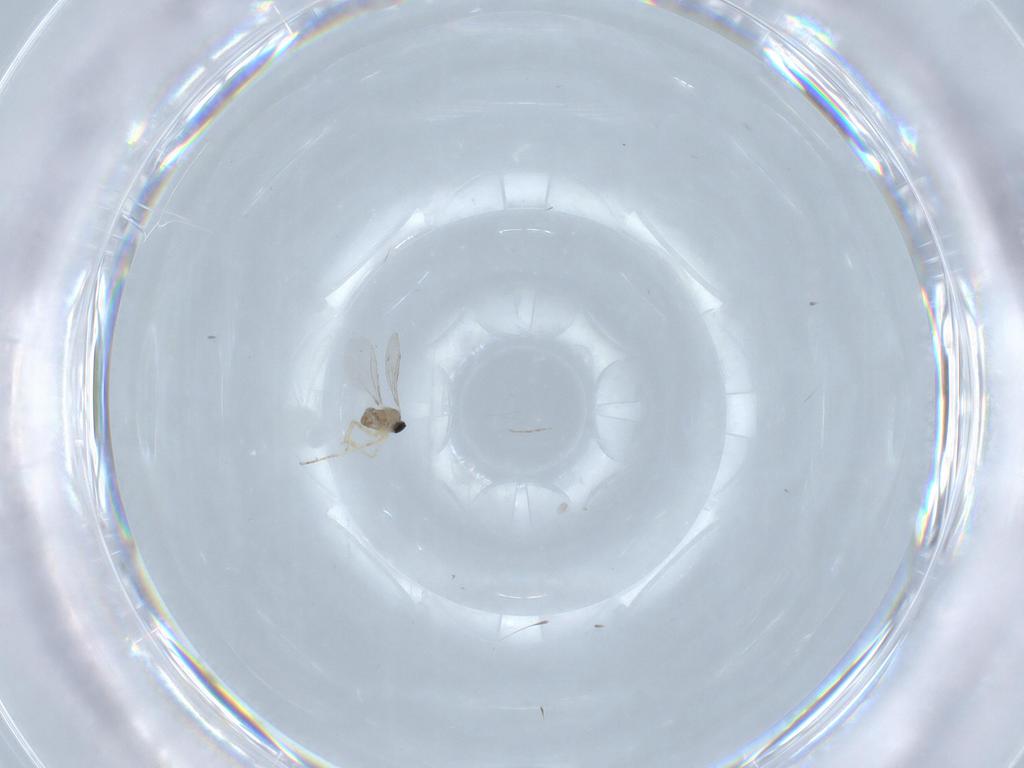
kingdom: Animalia
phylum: Arthropoda
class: Insecta
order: Diptera
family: Cecidomyiidae
